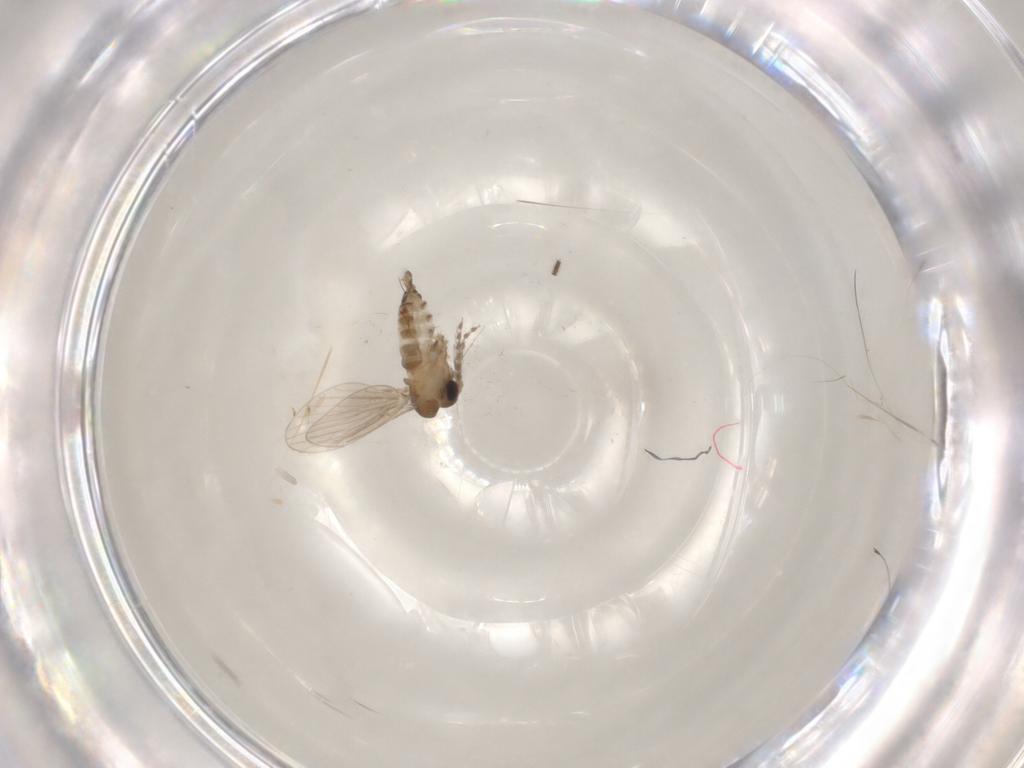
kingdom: Animalia
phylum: Arthropoda
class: Insecta
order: Diptera
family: Sciaridae
